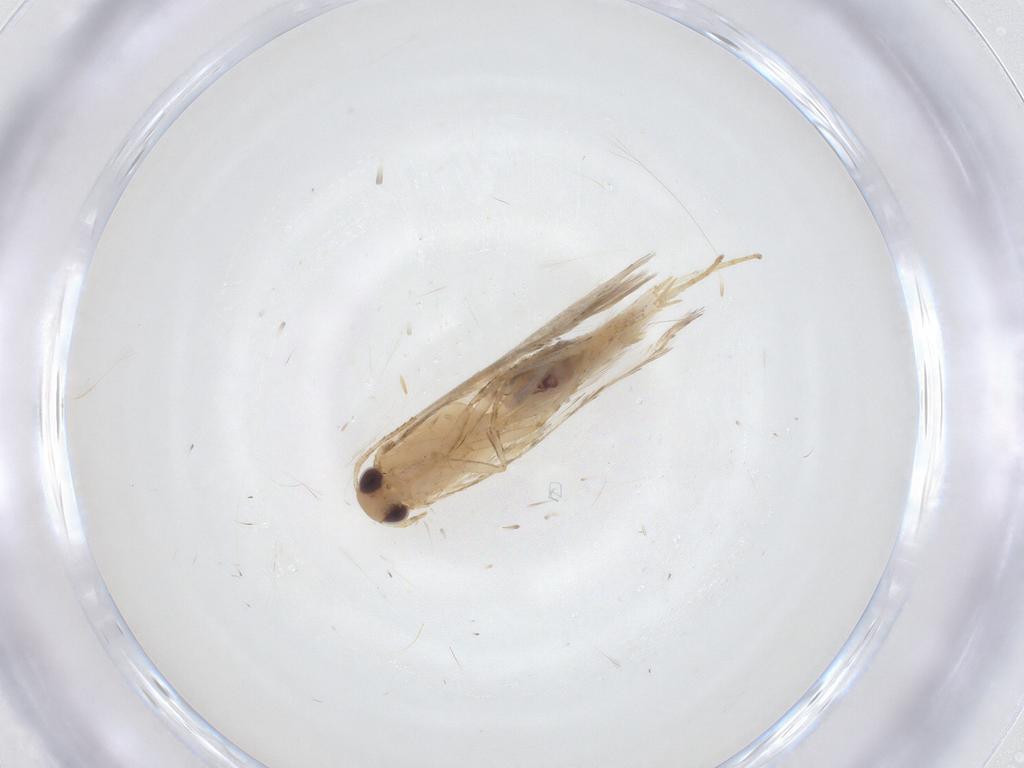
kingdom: Animalia
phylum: Arthropoda
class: Insecta
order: Lepidoptera
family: Gelechiidae
